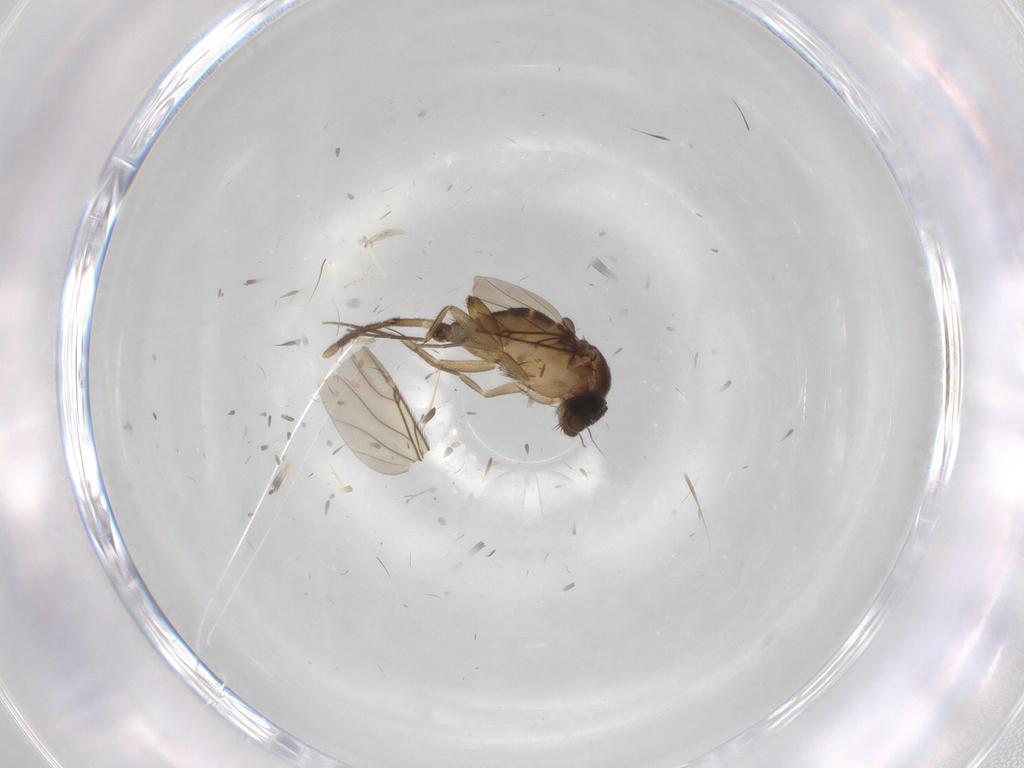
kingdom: Animalia
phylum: Arthropoda
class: Insecta
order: Diptera
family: Phoridae
